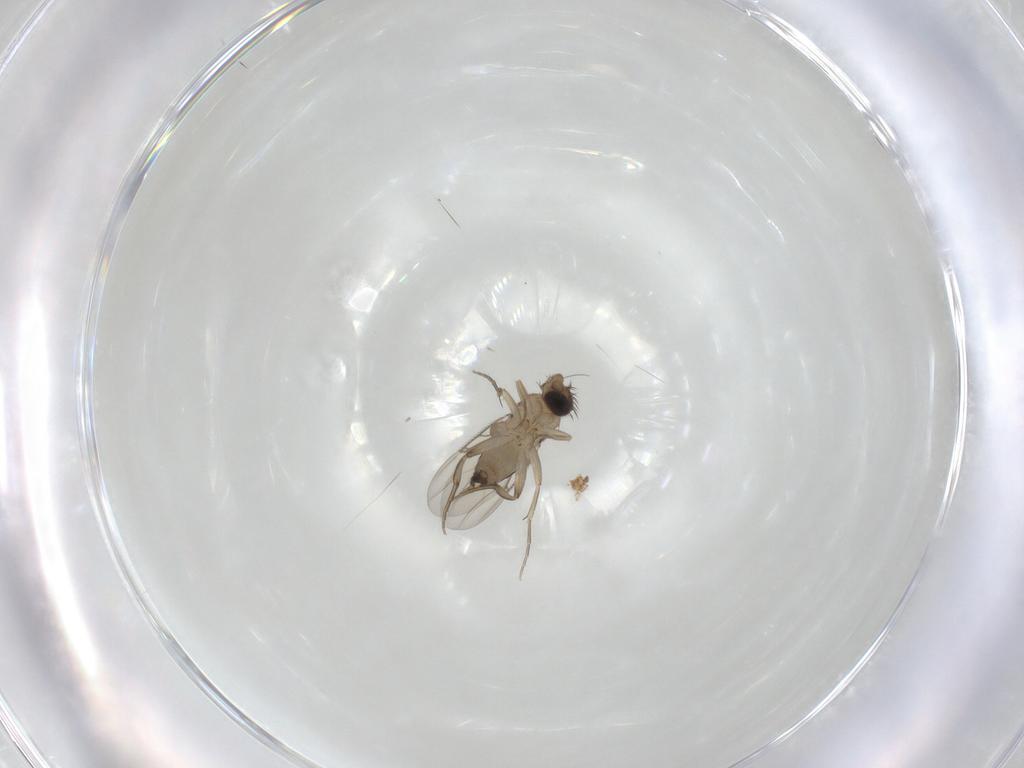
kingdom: Animalia
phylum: Arthropoda
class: Insecta
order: Diptera
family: Phoridae
